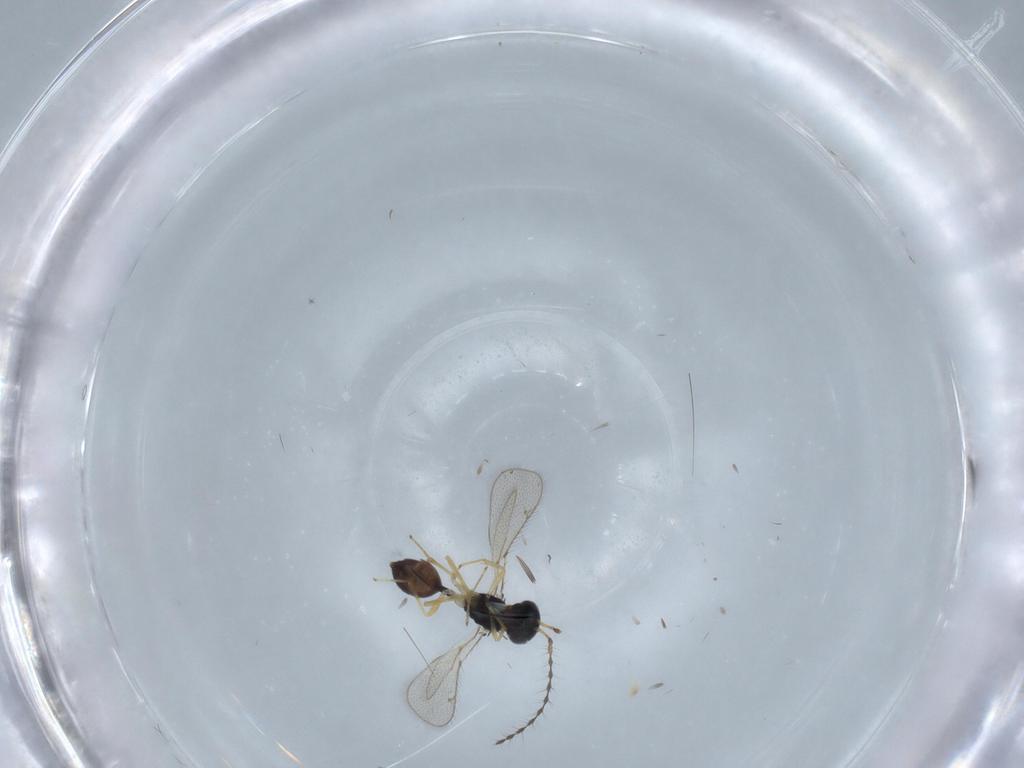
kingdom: Animalia
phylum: Arthropoda
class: Insecta
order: Hymenoptera
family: Diparidae
